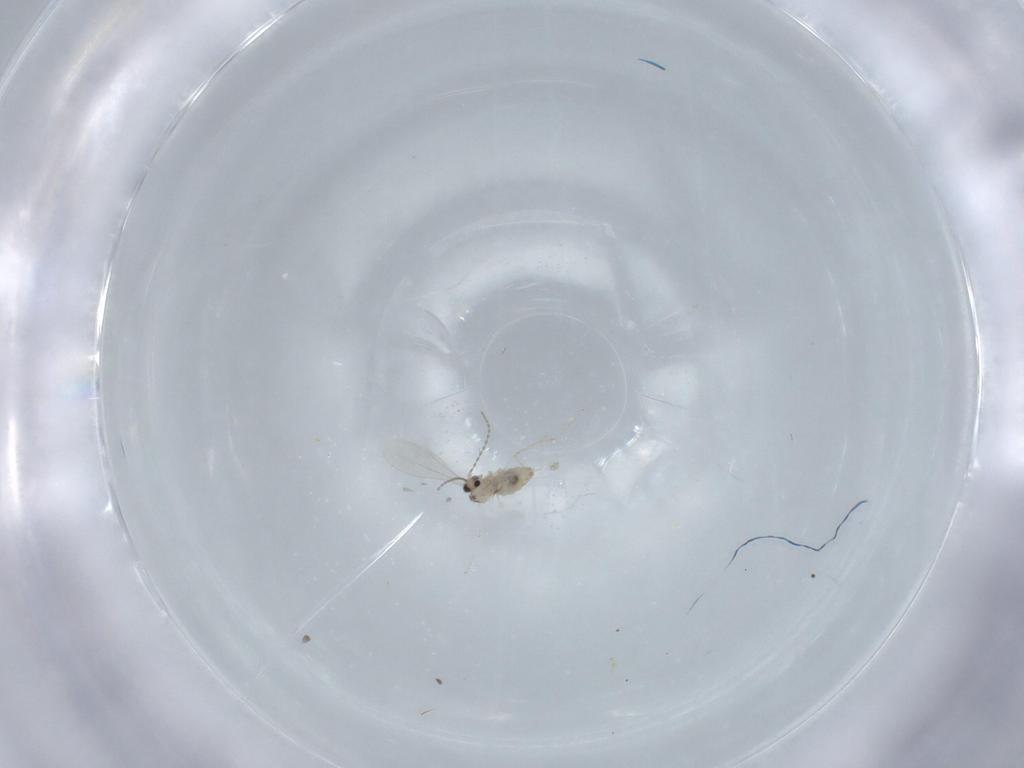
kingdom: Animalia
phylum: Arthropoda
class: Insecta
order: Diptera
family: Cecidomyiidae
